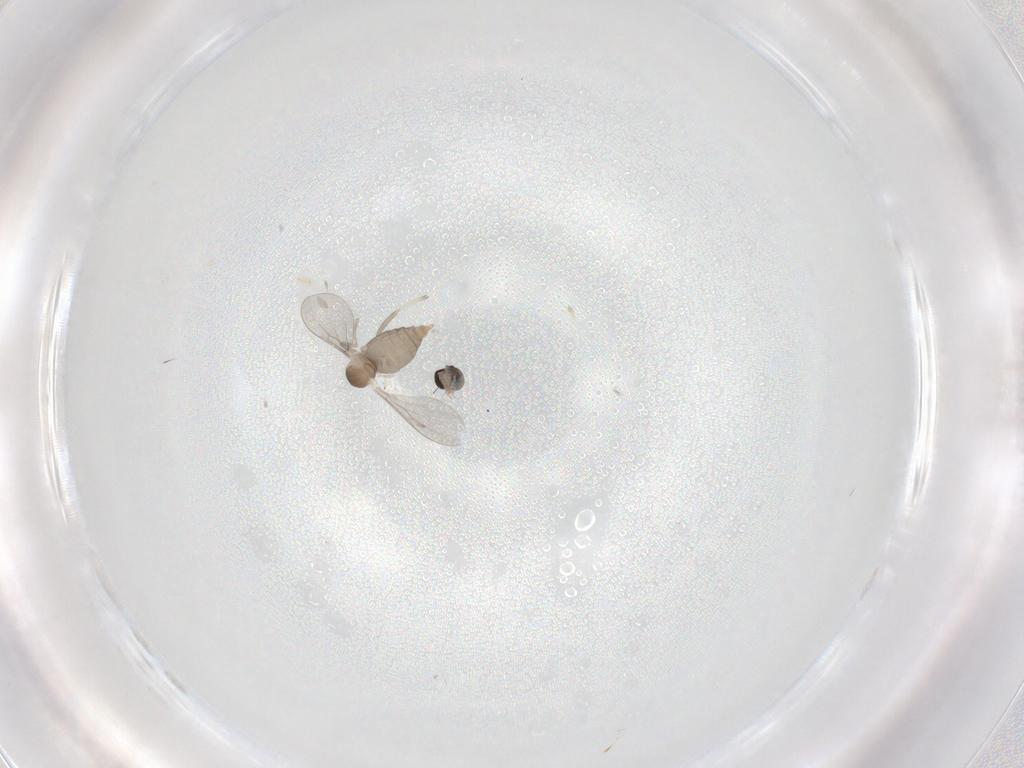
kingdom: Animalia
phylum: Arthropoda
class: Insecta
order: Diptera
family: Cecidomyiidae
